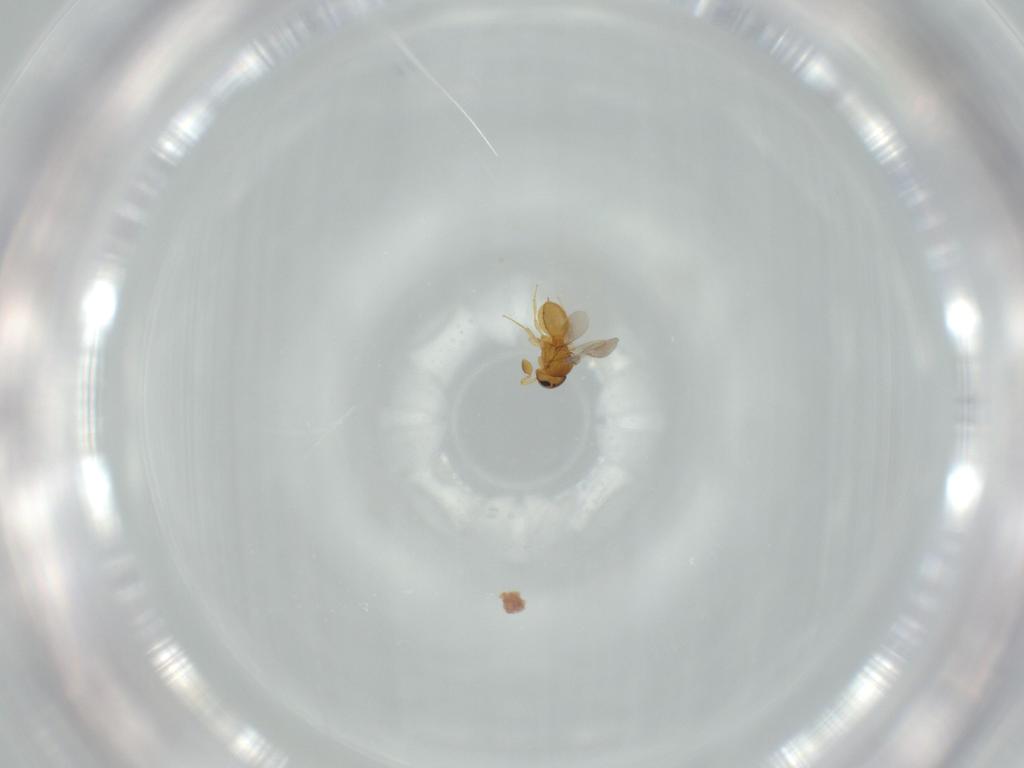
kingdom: Animalia
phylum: Arthropoda
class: Insecta
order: Hymenoptera
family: Scelionidae
